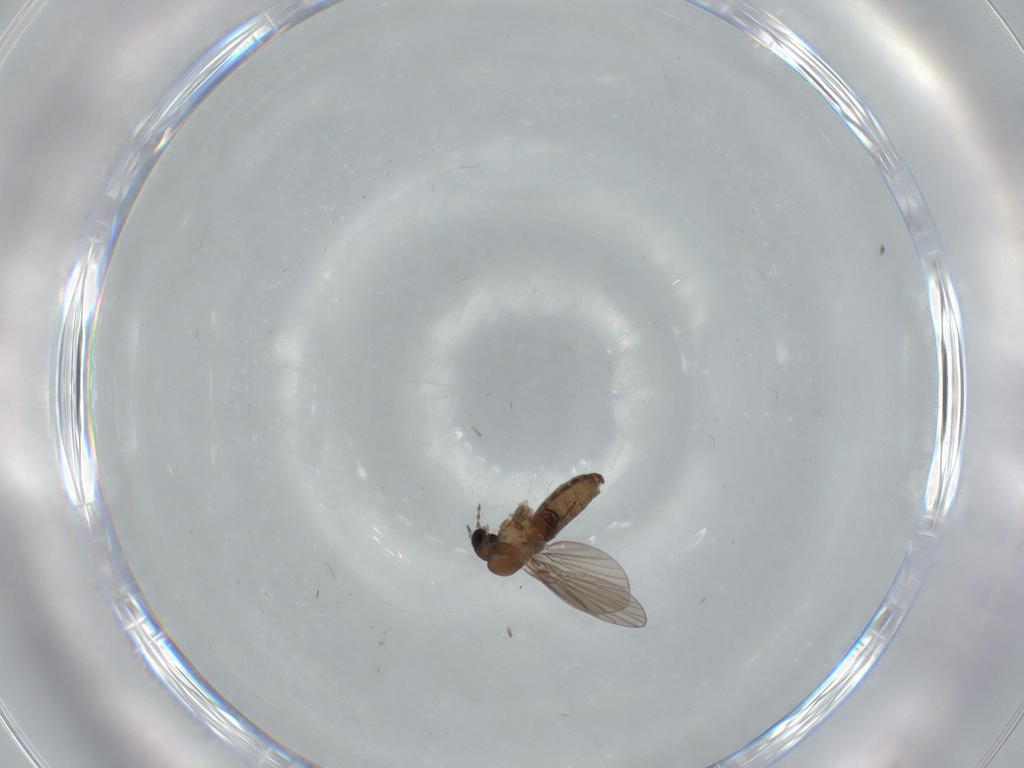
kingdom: Animalia
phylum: Arthropoda
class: Insecta
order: Diptera
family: Psychodidae
